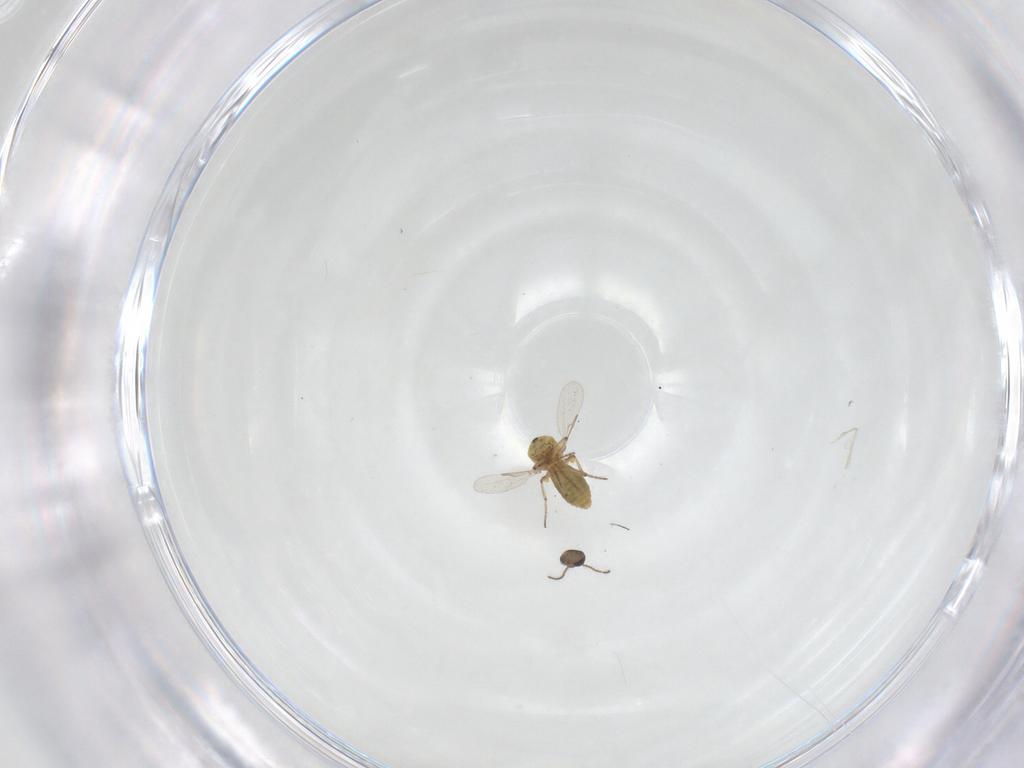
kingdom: Animalia
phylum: Arthropoda
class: Insecta
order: Diptera
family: Ceratopogonidae
